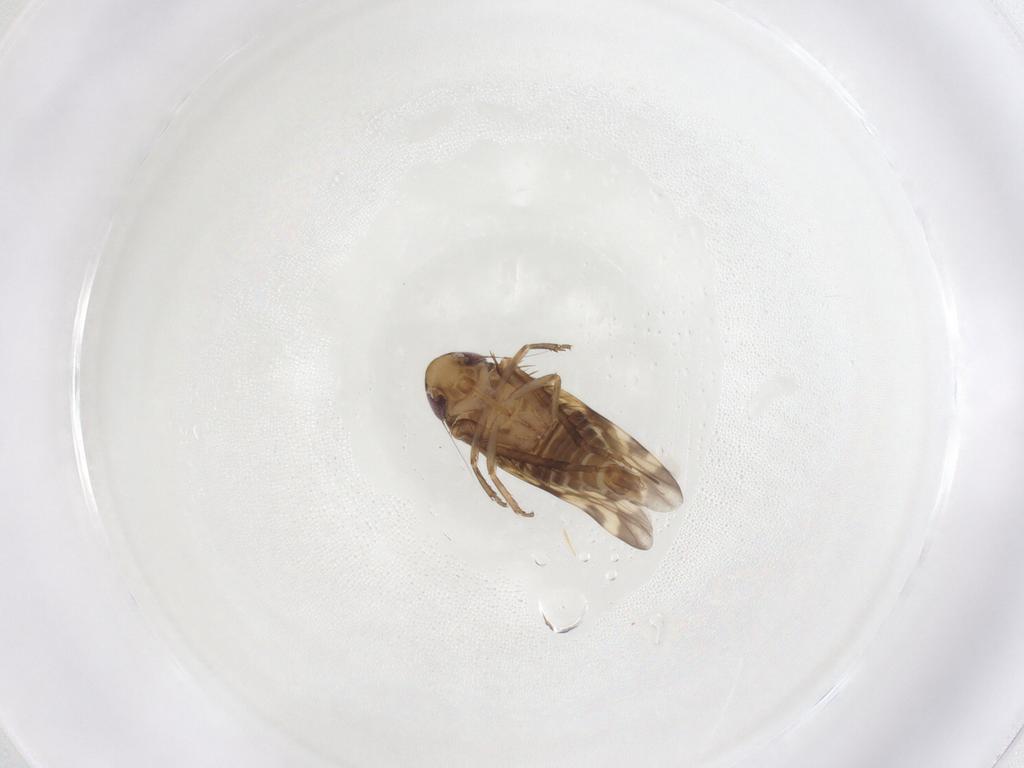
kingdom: Animalia
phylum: Arthropoda
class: Insecta
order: Hemiptera
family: Cicadellidae
